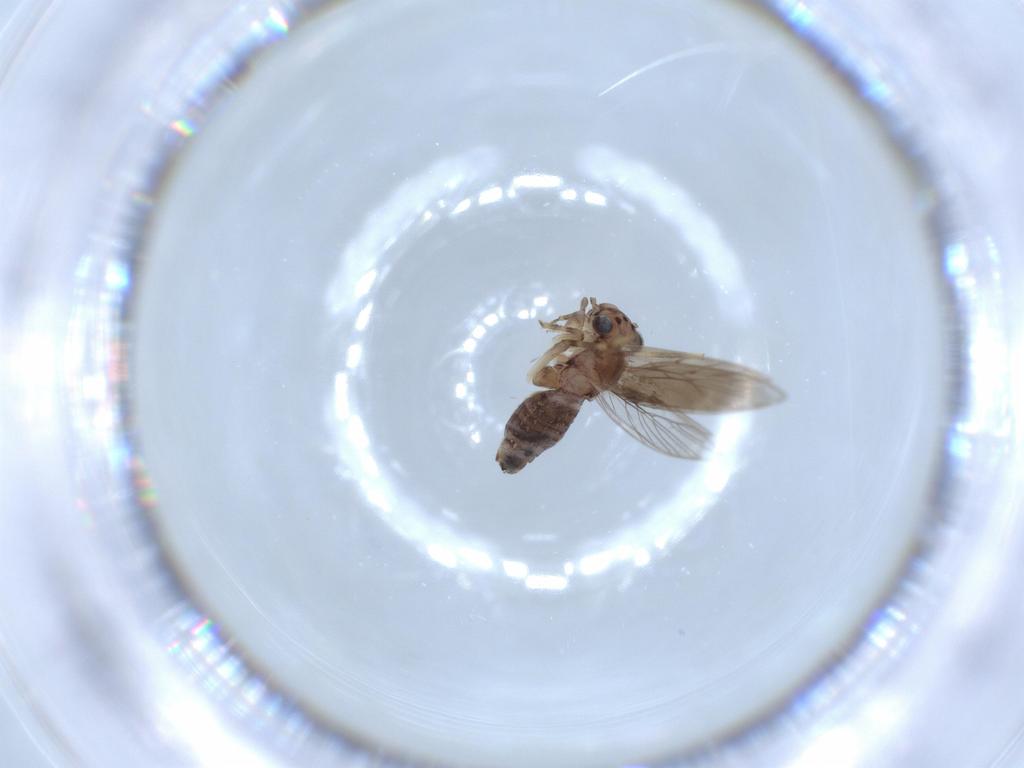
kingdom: Animalia
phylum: Arthropoda
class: Insecta
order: Psocodea
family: Lepidopsocidae
